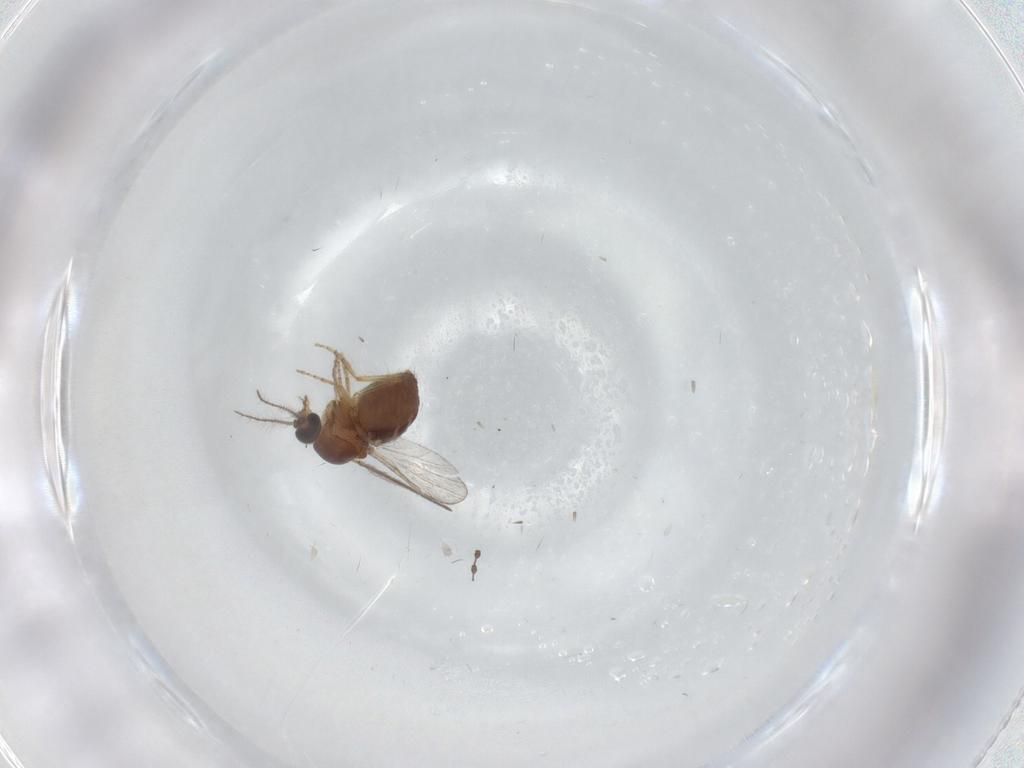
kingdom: Animalia
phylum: Arthropoda
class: Insecta
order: Diptera
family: Ceratopogonidae
